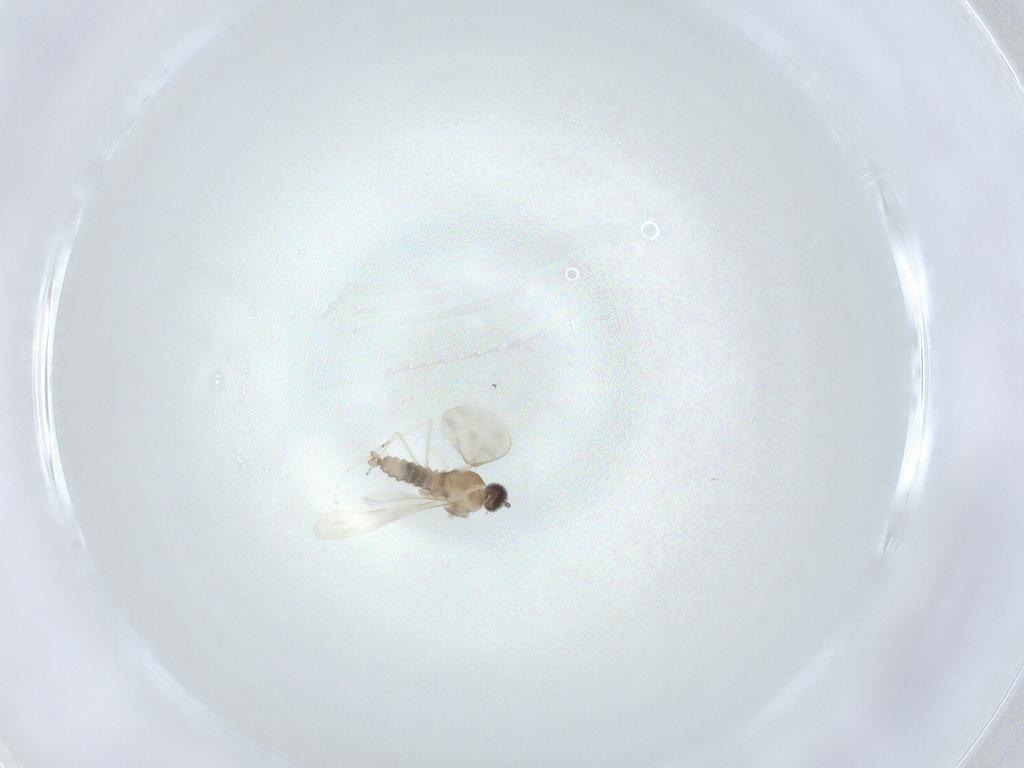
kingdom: Animalia
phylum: Arthropoda
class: Insecta
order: Diptera
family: Cecidomyiidae
